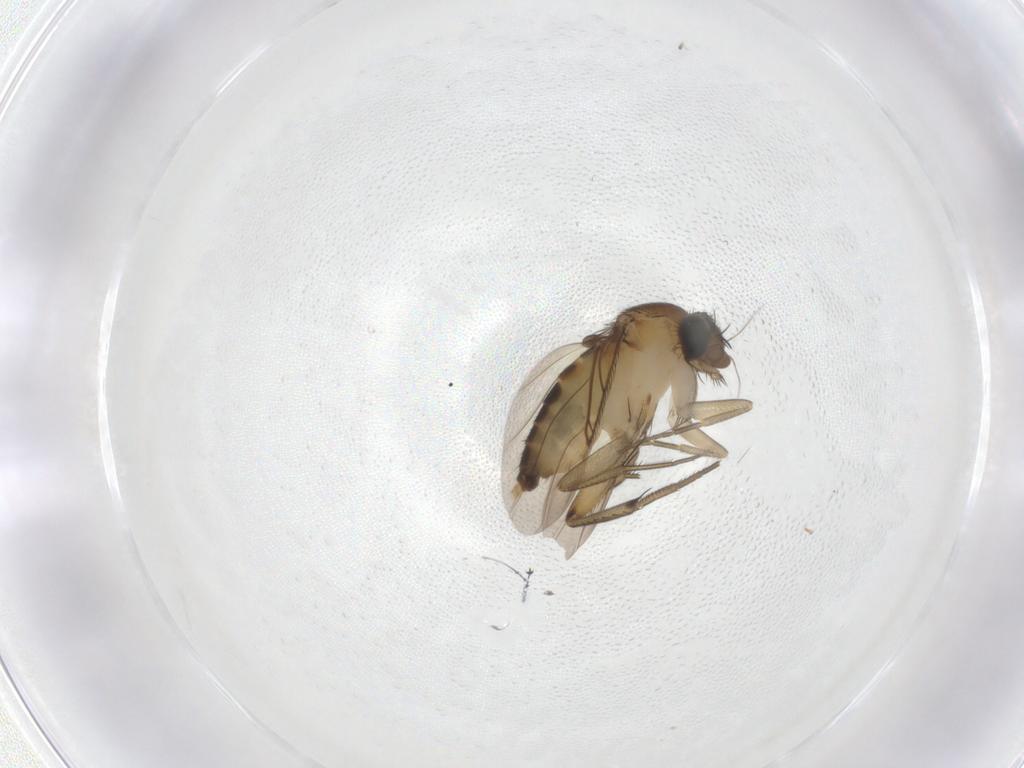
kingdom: Animalia
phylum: Arthropoda
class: Insecta
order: Diptera
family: Phoridae
